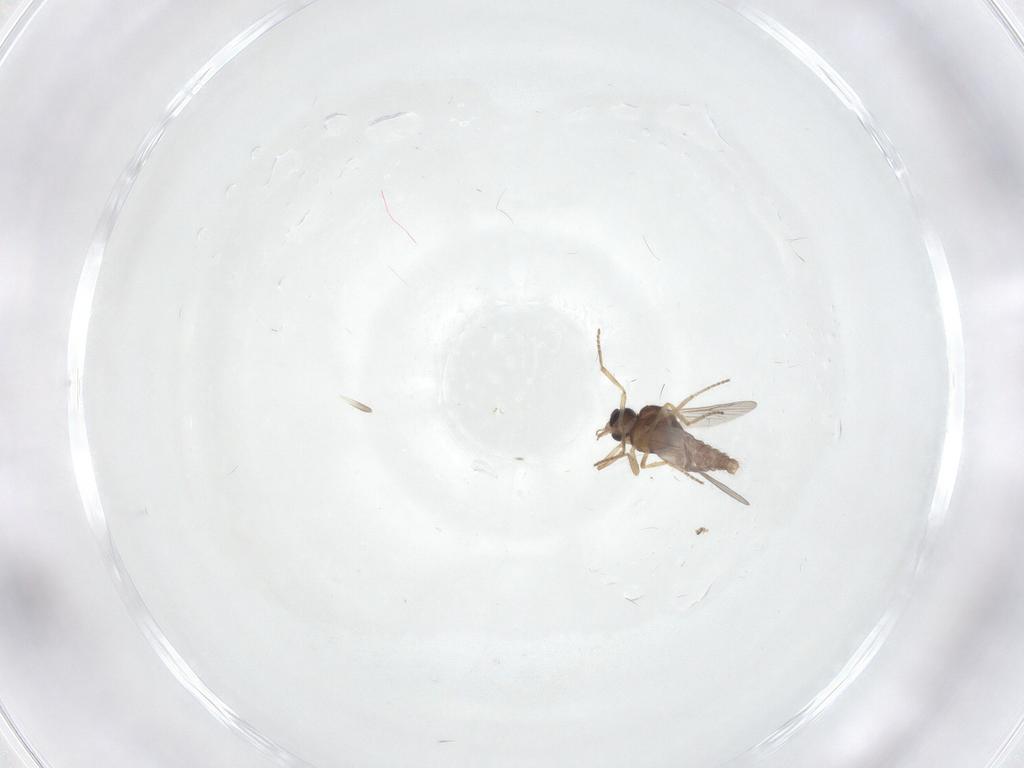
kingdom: Animalia
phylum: Arthropoda
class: Insecta
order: Diptera
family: Ceratopogonidae
